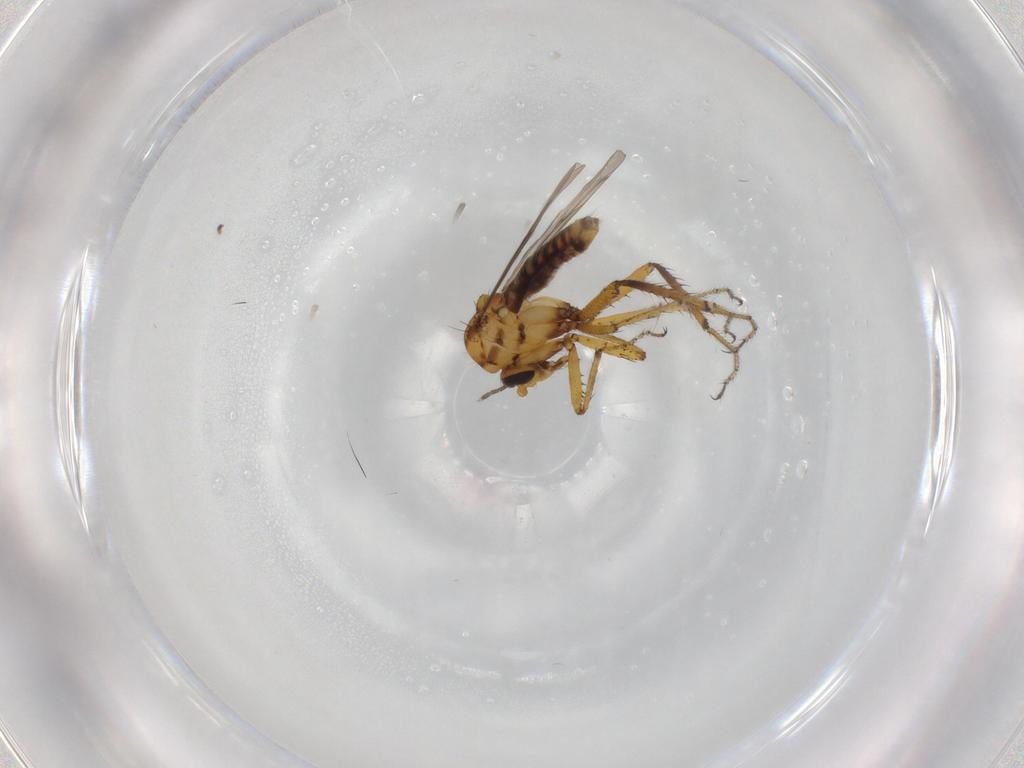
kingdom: Animalia
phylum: Arthropoda
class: Insecta
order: Diptera
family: Ceratopogonidae
